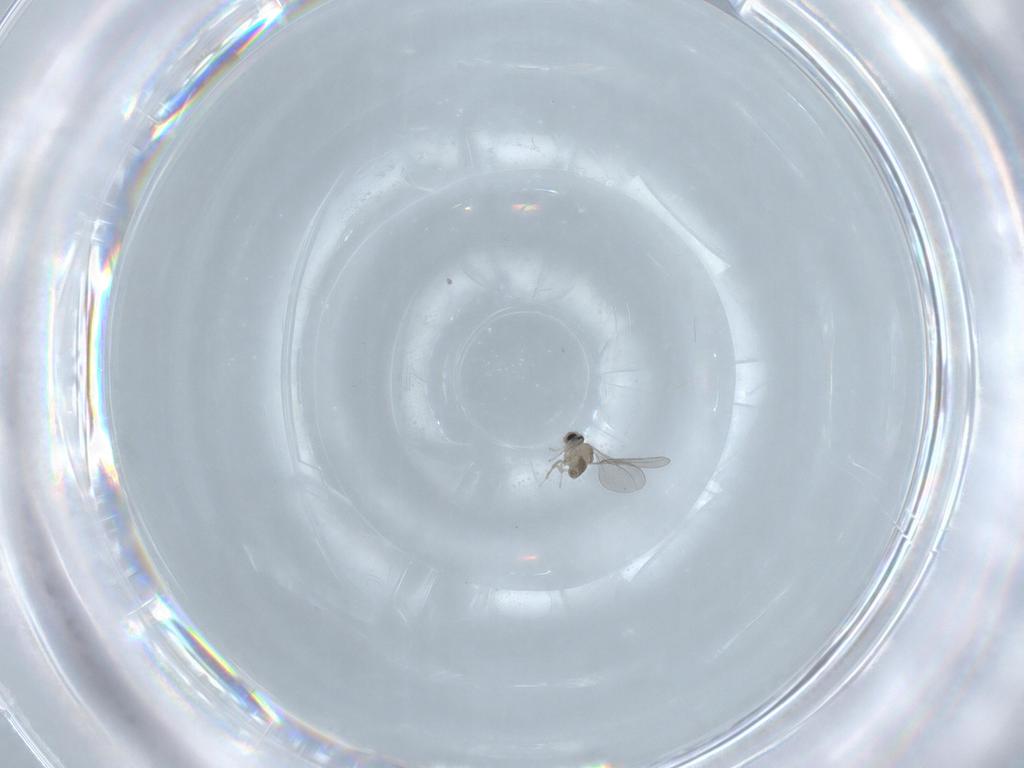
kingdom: Animalia
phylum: Arthropoda
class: Insecta
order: Diptera
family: Cecidomyiidae
